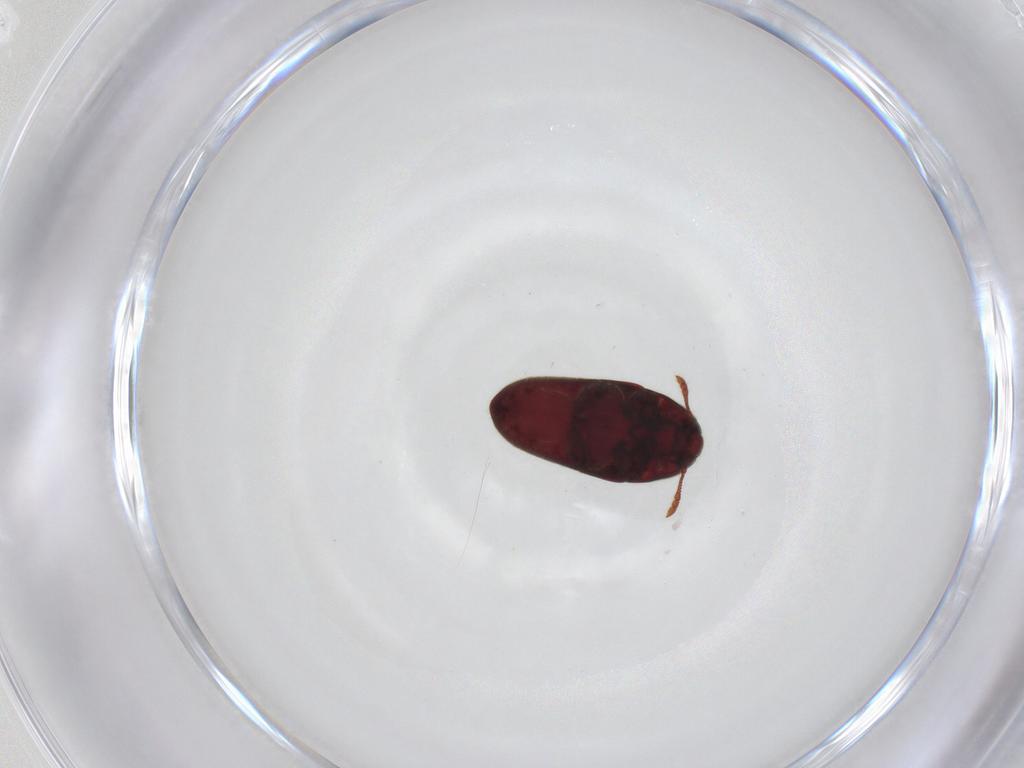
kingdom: Animalia
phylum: Arthropoda
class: Insecta
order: Coleoptera
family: Throscidae
